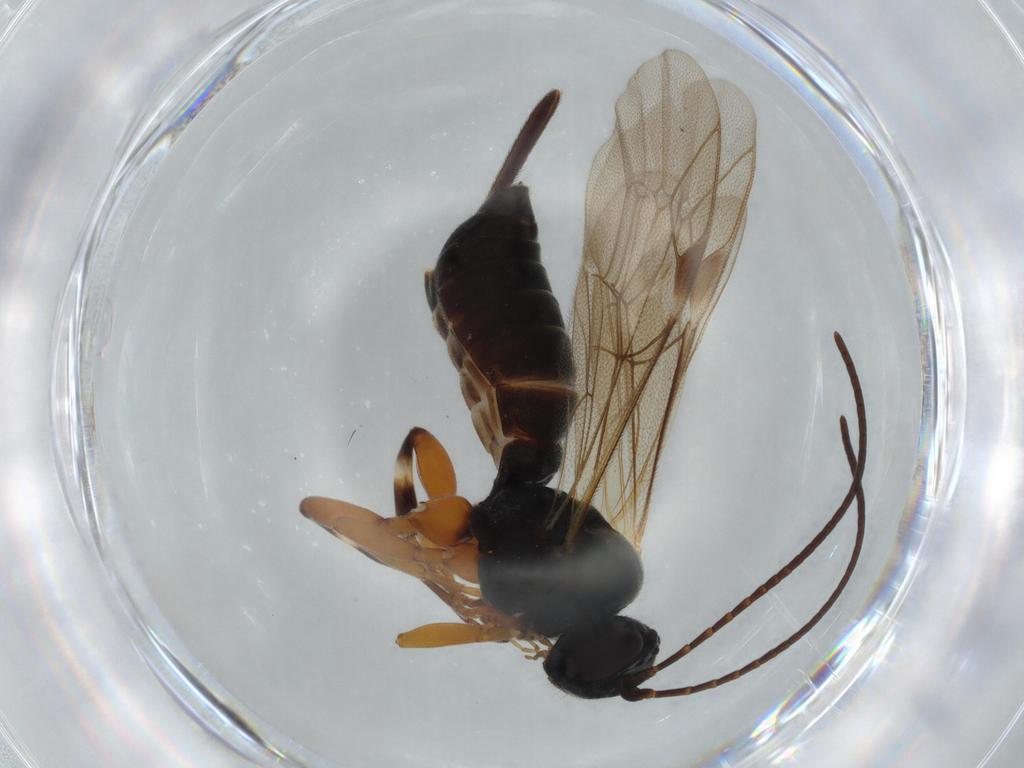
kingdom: Animalia
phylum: Arthropoda
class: Insecta
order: Hymenoptera
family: Ichneumonidae
